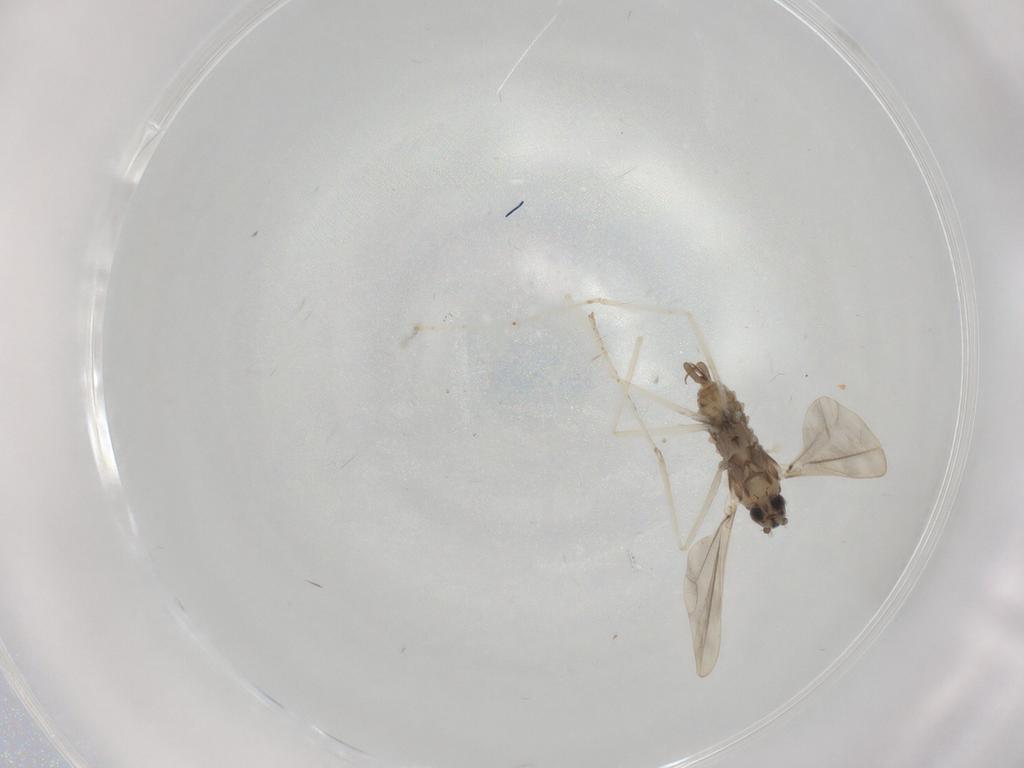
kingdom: Animalia
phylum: Arthropoda
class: Insecta
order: Diptera
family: Cecidomyiidae
